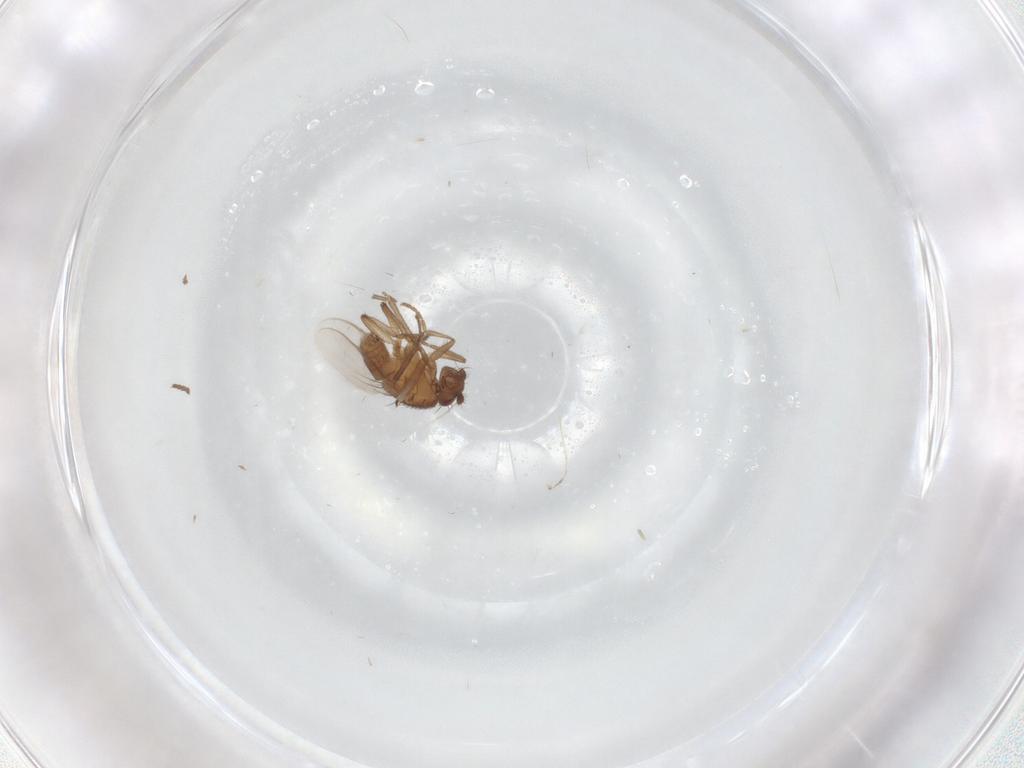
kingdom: Animalia
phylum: Arthropoda
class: Insecta
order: Diptera
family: Sphaeroceridae
